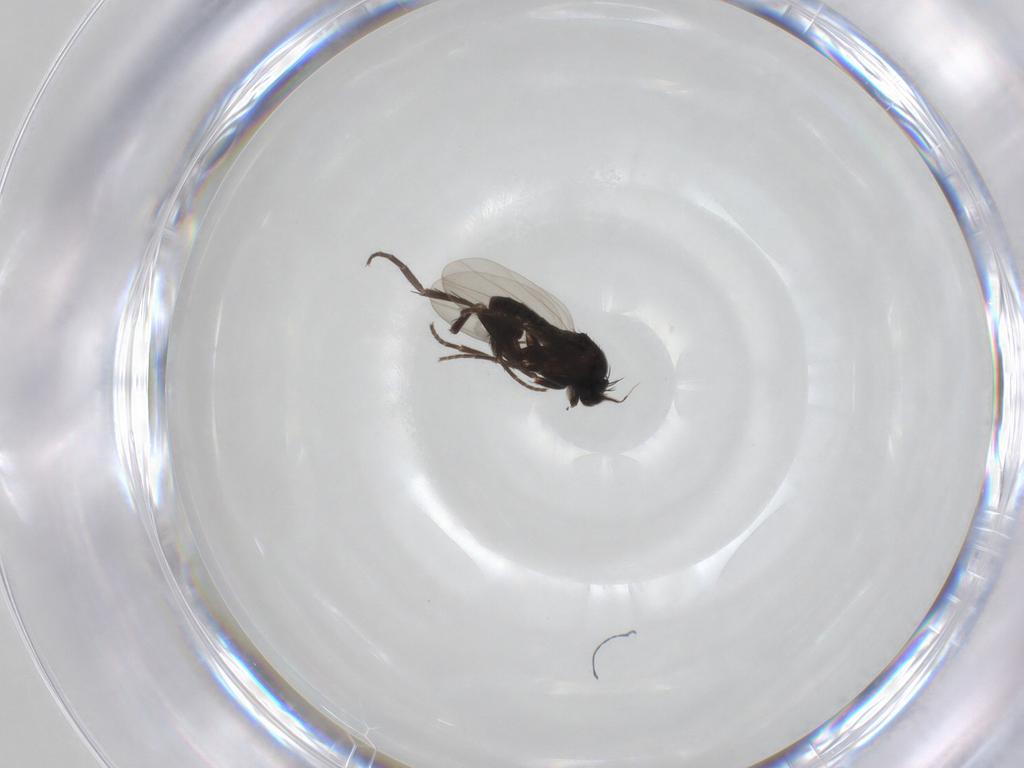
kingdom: Animalia
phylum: Arthropoda
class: Insecta
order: Diptera
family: Phoridae
